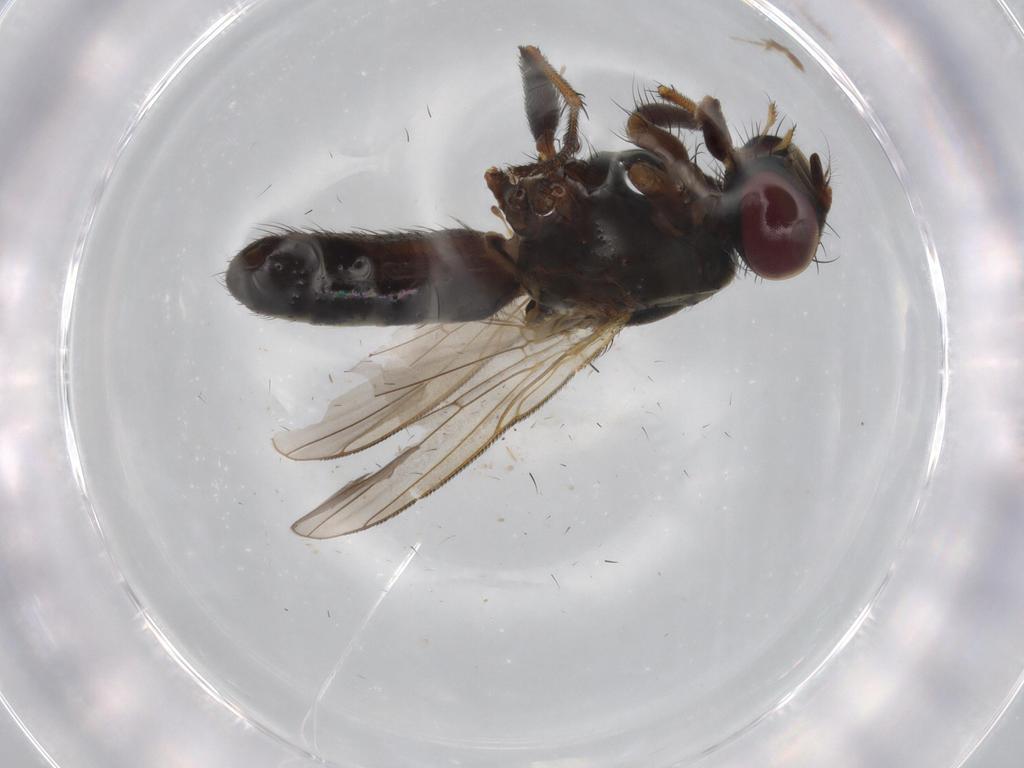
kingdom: Animalia
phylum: Arthropoda
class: Insecta
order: Diptera
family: Muscidae
